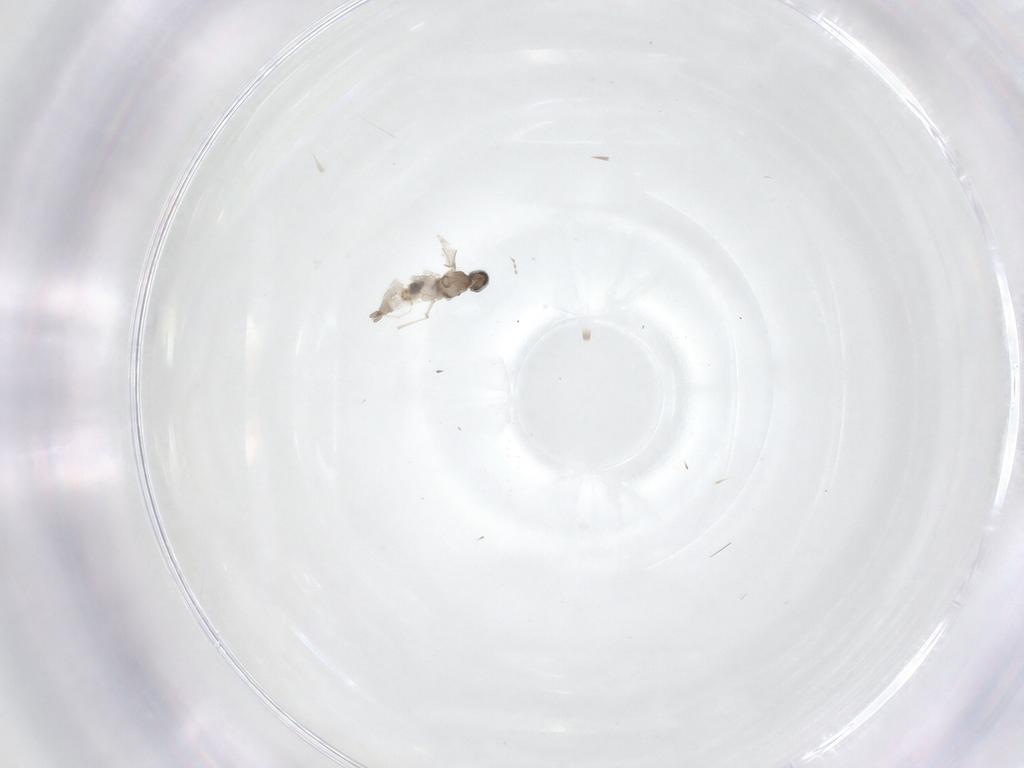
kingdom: Animalia
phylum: Arthropoda
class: Insecta
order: Diptera
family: Cecidomyiidae
